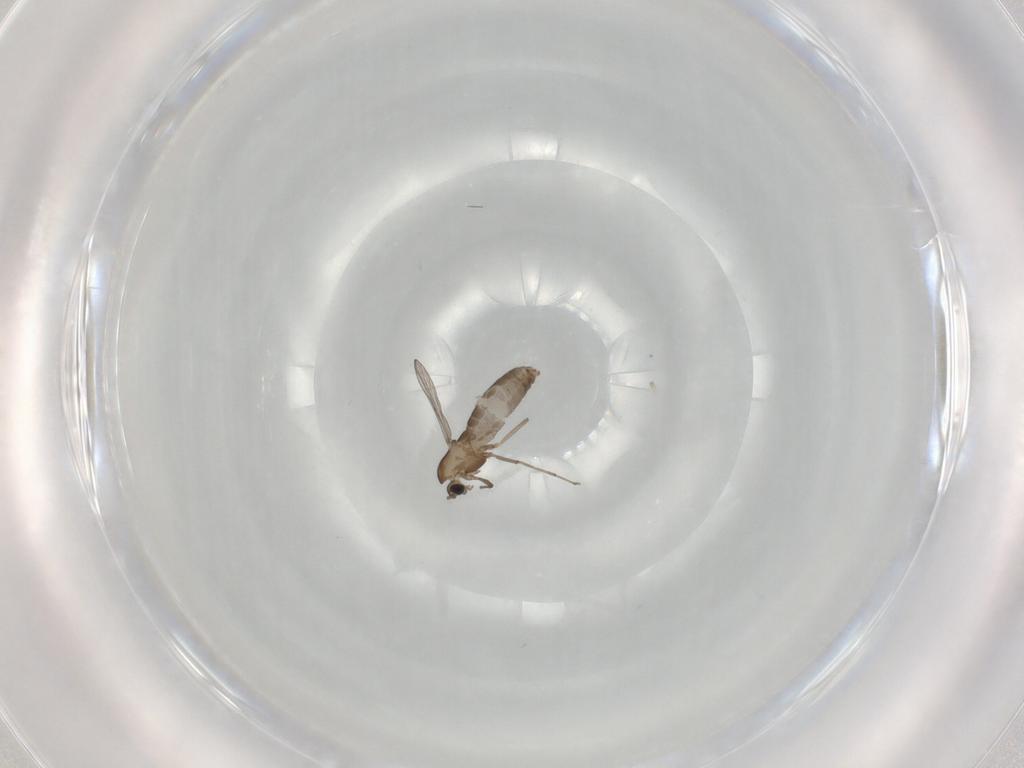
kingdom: Animalia
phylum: Arthropoda
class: Insecta
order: Diptera
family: Chironomidae
